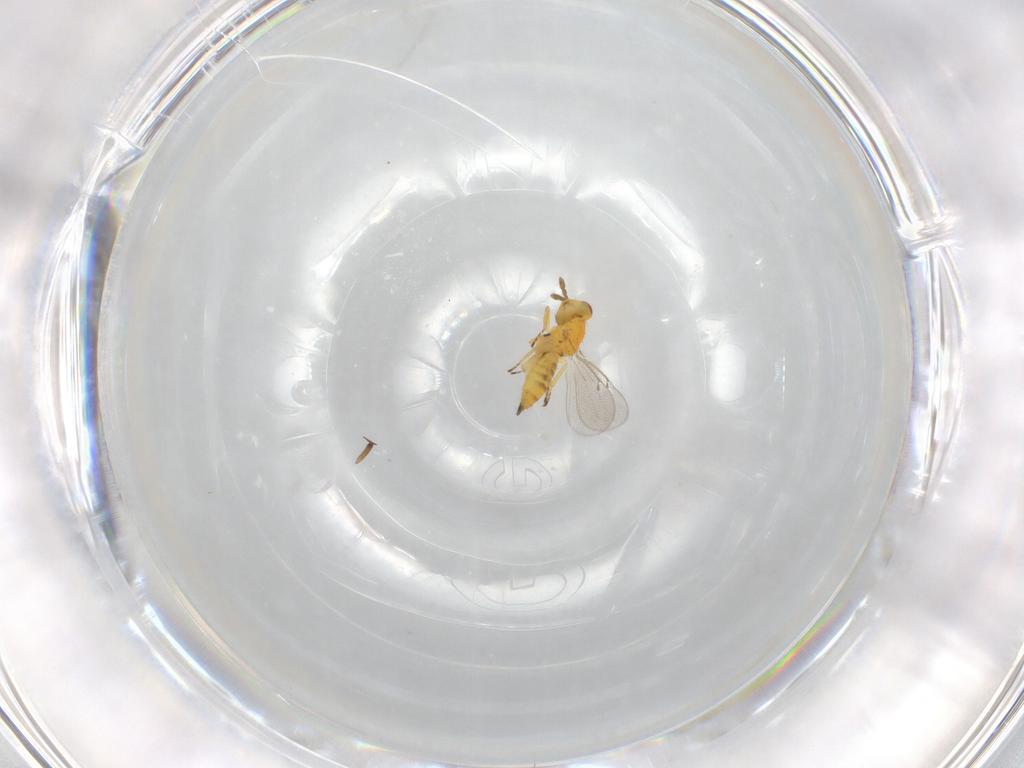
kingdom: Animalia
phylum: Arthropoda
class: Insecta
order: Hymenoptera
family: Eulophidae
